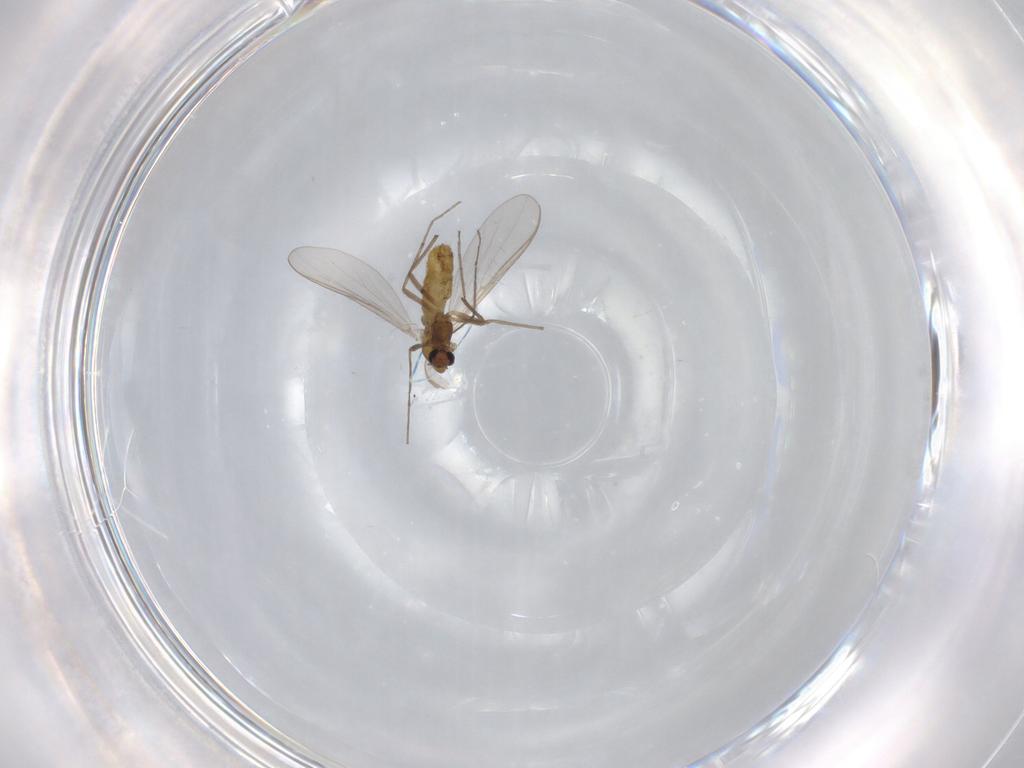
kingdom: Animalia
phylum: Arthropoda
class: Insecta
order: Diptera
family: Chironomidae
